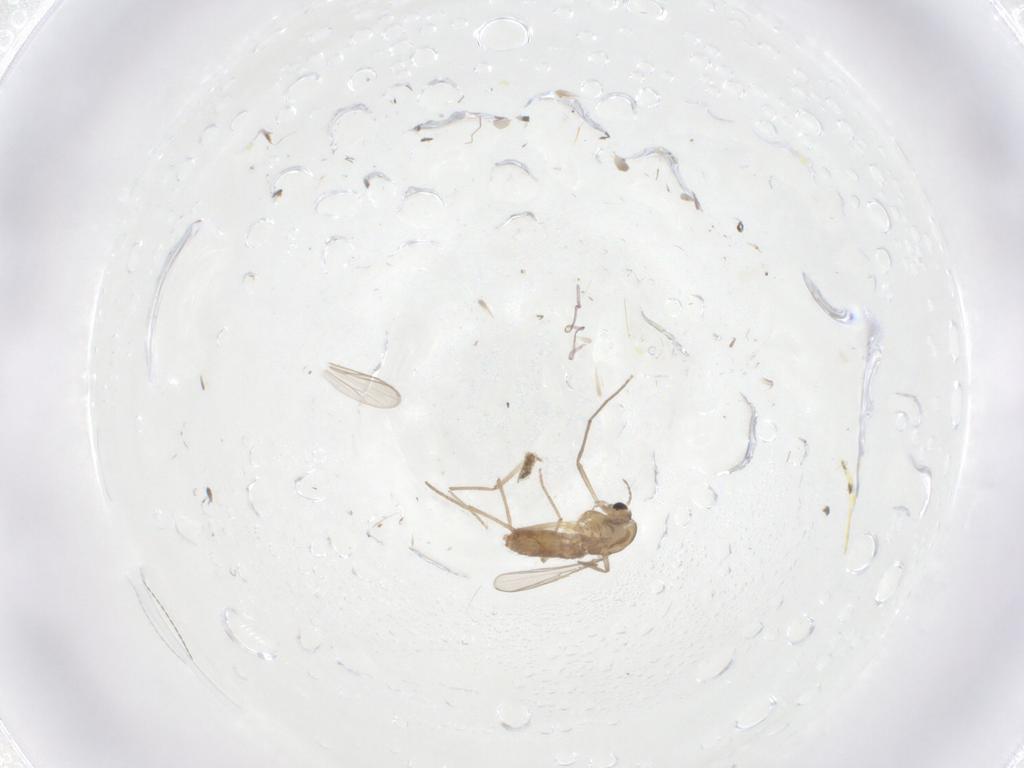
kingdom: Animalia
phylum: Arthropoda
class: Insecta
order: Diptera
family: Chironomidae
